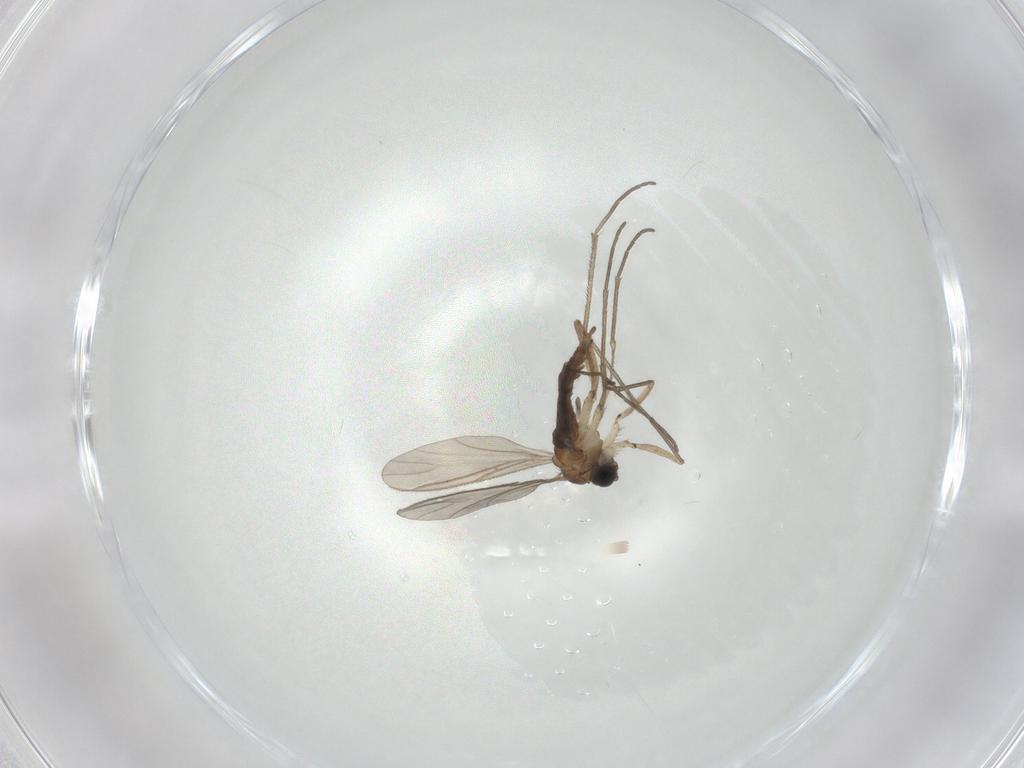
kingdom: Animalia
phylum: Arthropoda
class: Insecta
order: Diptera
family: Sciaridae
